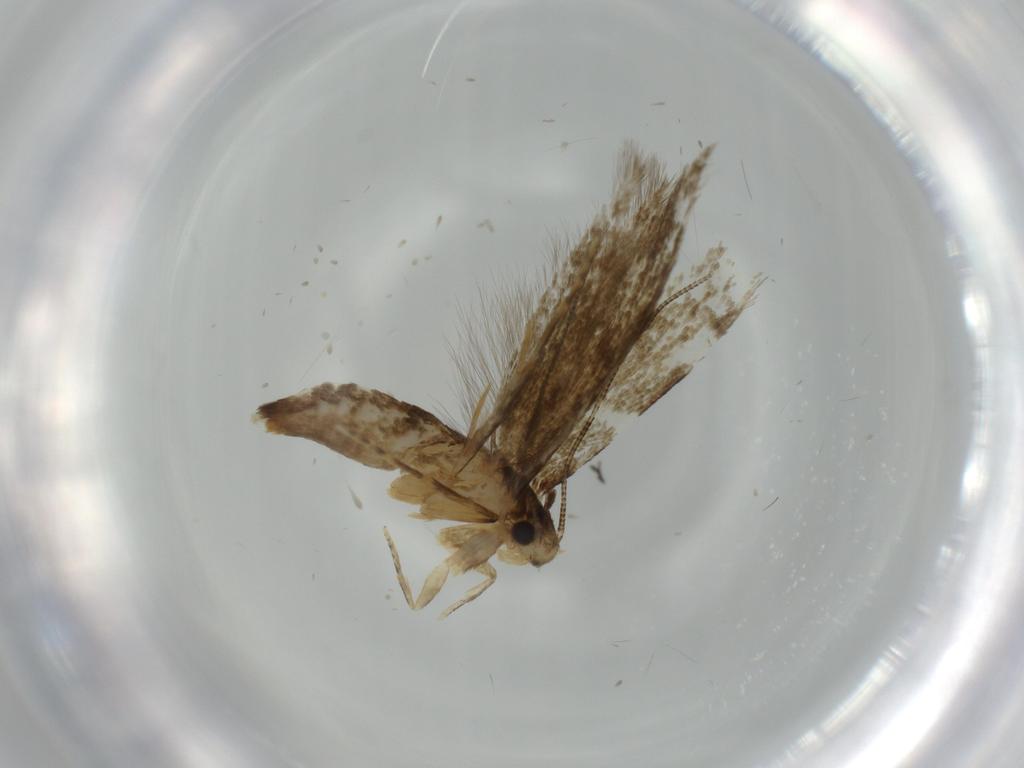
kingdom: Animalia
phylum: Arthropoda
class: Insecta
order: Lepidoptera
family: Tineidae
